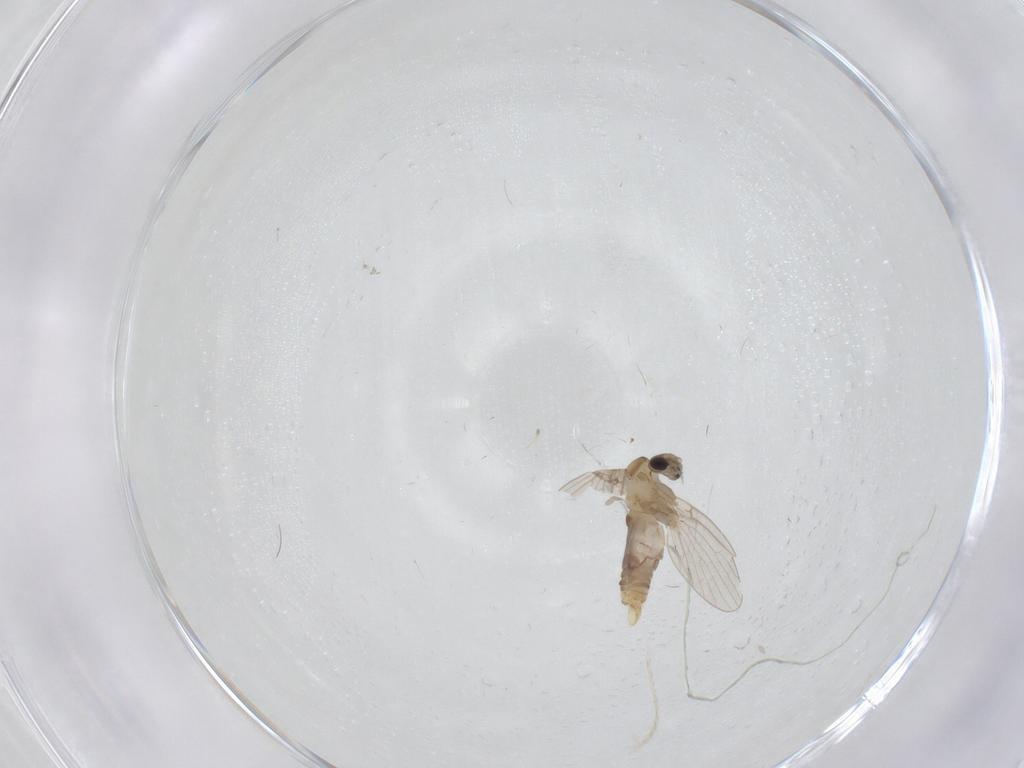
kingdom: Animalia
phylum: Arthropoda
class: Insecta
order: Diptera
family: Psychodidae
